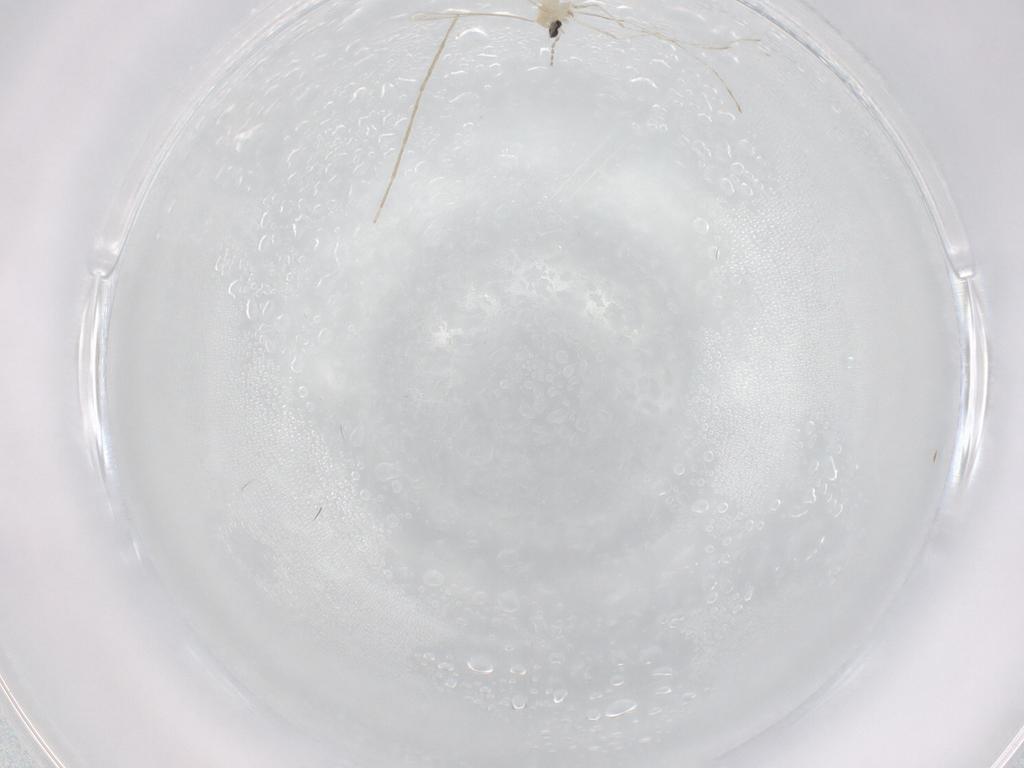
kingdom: Animalia
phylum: Arthropoda
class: Insecta
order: Diptera
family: Cecidomyiidae
